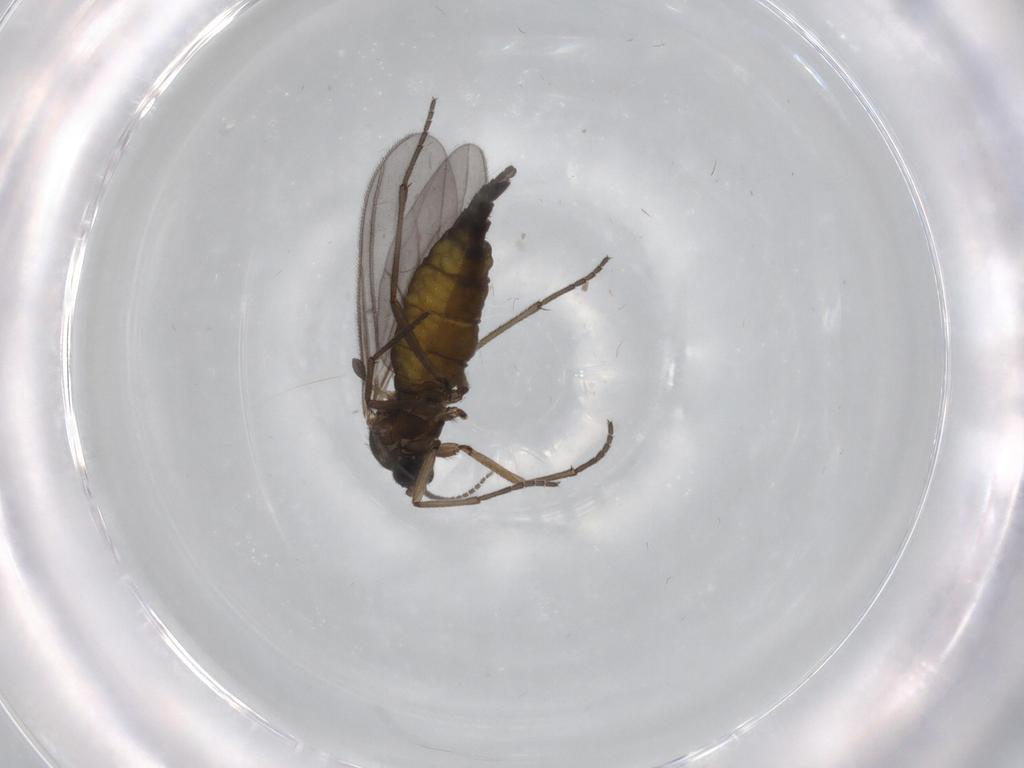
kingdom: Animalia
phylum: Arthropoda
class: Insecta
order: Diptera
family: Sciaridae
